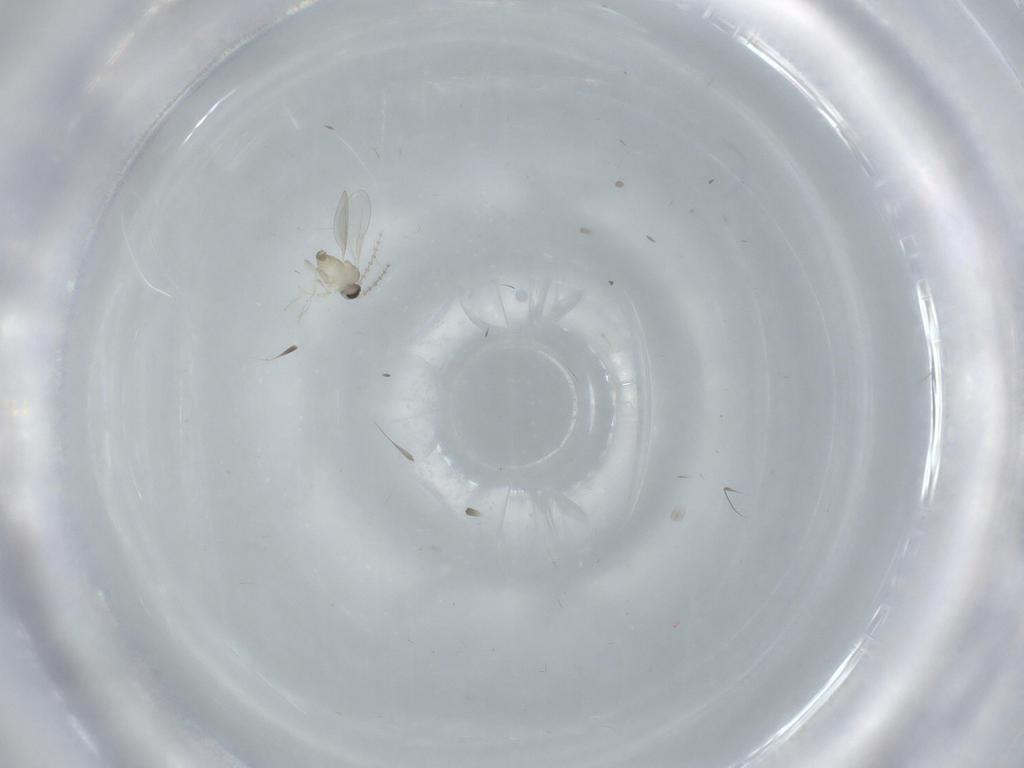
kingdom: Animalia
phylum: Arthropoda
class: Insecta
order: Diptera
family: Cecidomyiidae
